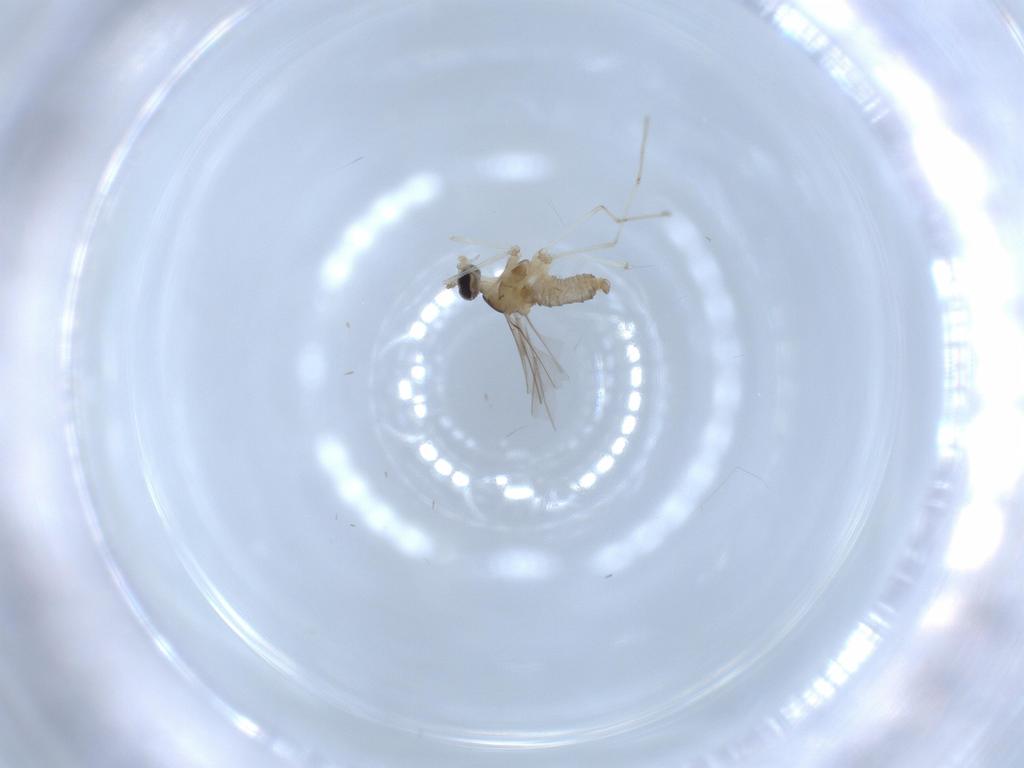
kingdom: Animalia
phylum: Arthropoda
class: Insecta
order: Diptera
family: Cecidomyiidae
